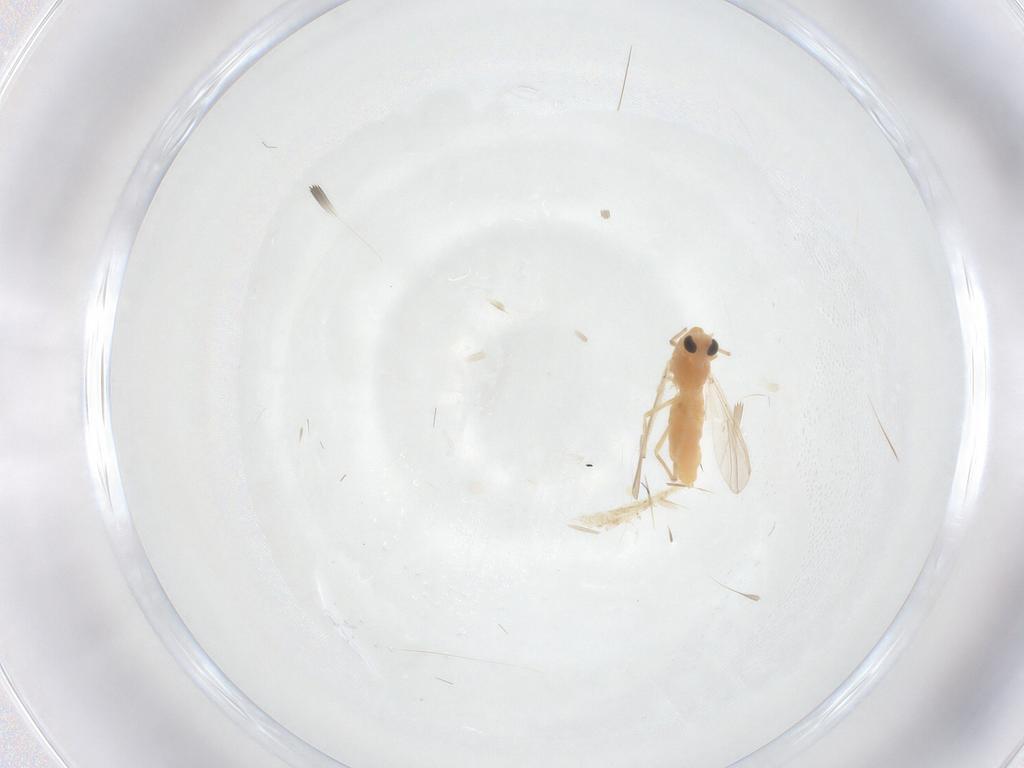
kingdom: Animalia
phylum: Arthropoda
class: Insecta
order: Diptera
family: Chironomidae
